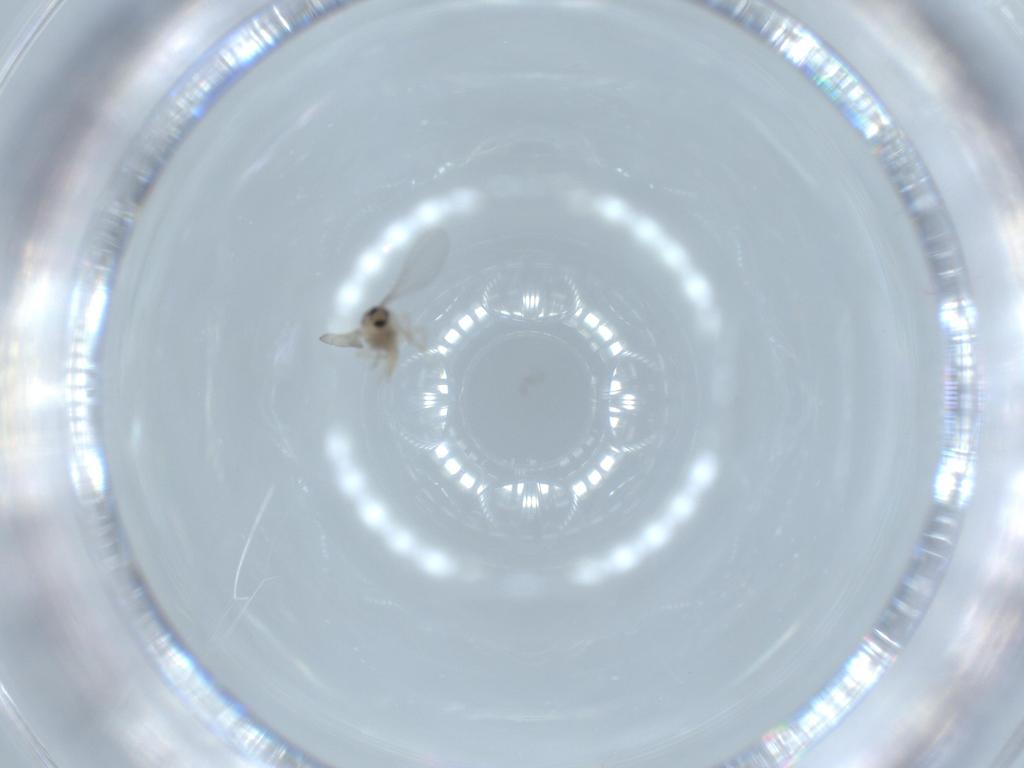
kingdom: Animalia
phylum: Arthropoda
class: Insecta
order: Diptera
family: Cecidomyiidae
